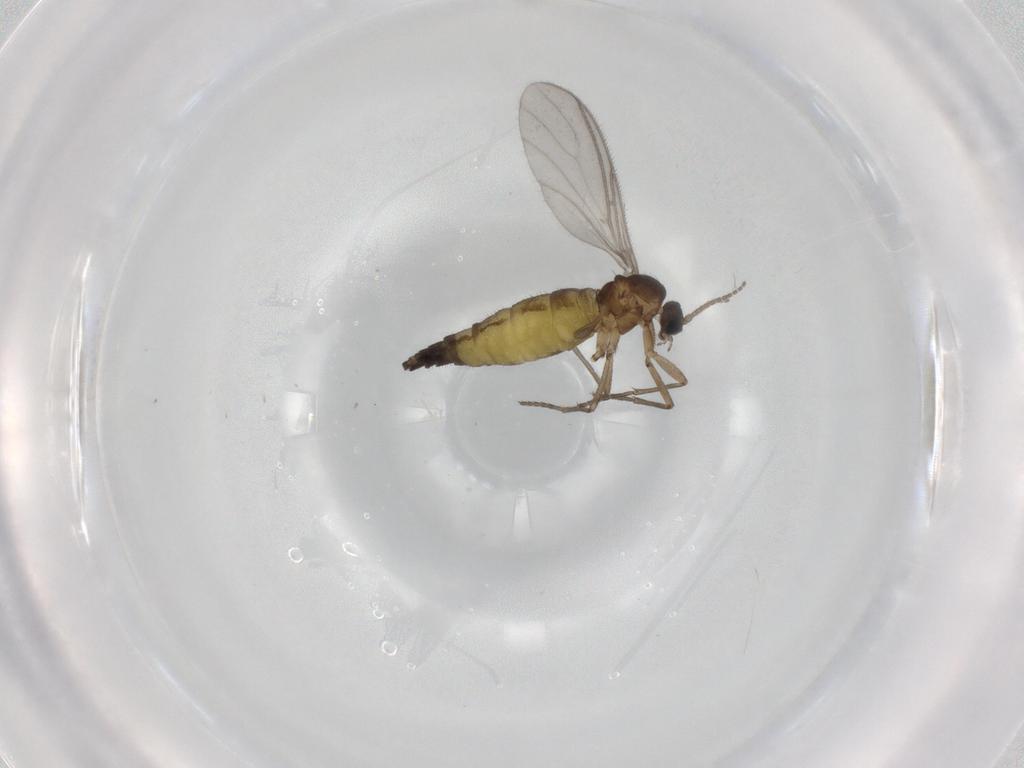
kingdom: Animalia
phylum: Arthropoda
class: Insecta
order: Diptera
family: Sciaridae
